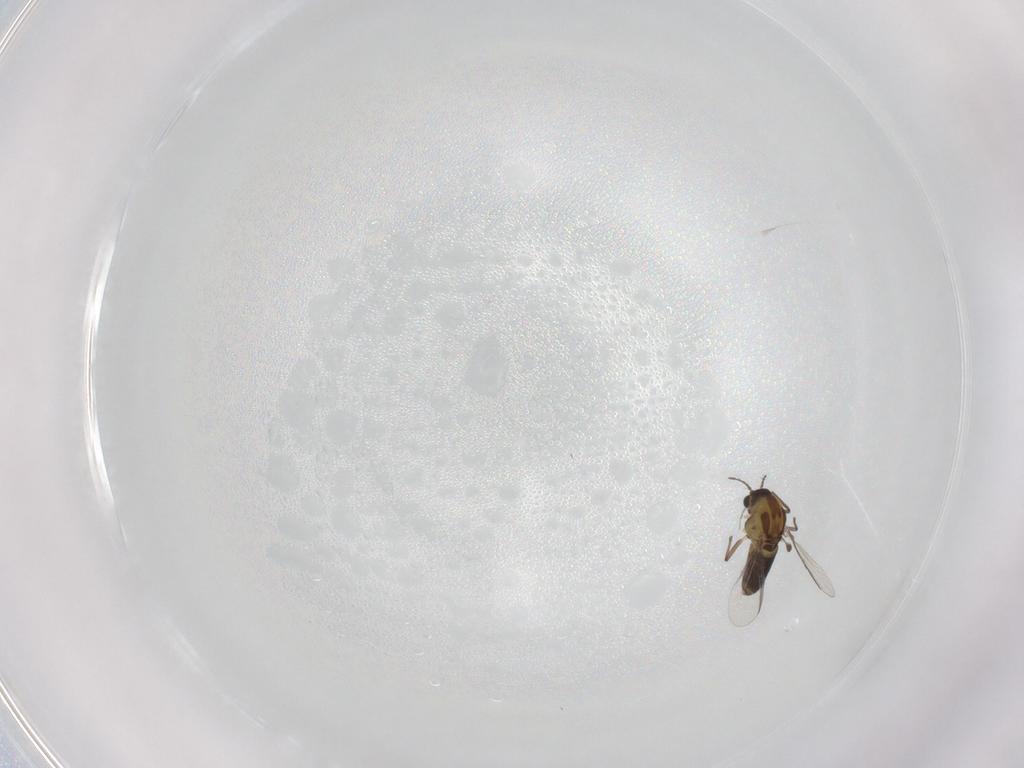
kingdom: Animalia
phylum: Arthropoda
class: Insecta
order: Diptera
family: Chironomidae
